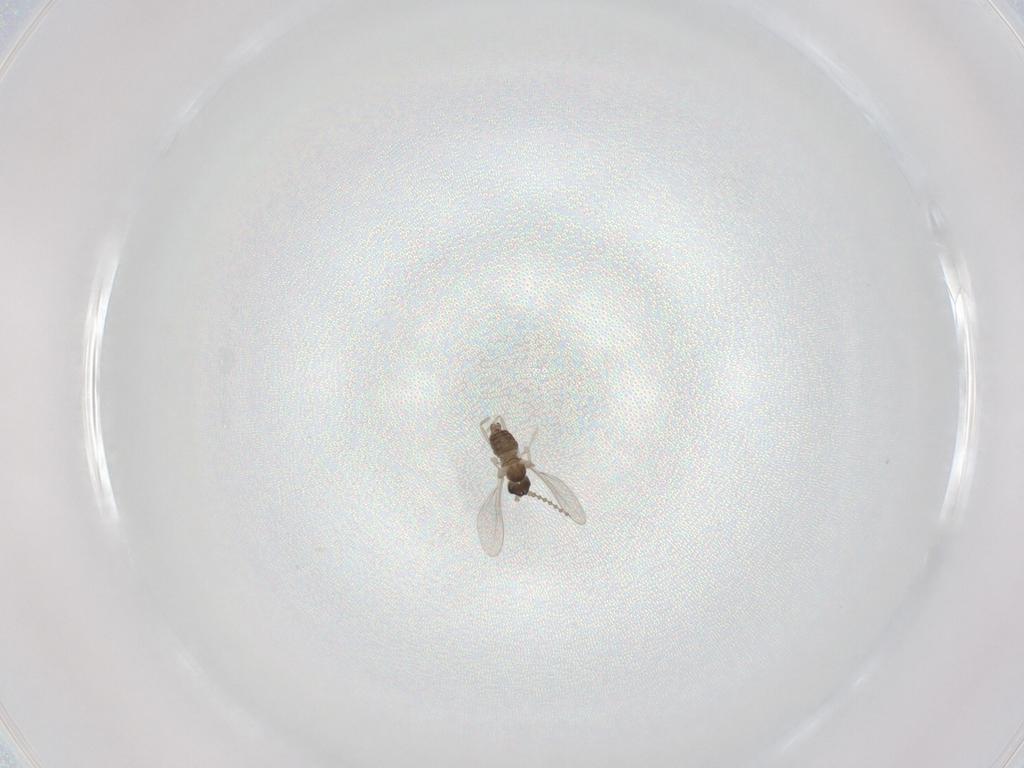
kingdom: Animalia
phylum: Arthropoda
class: Insecta
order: Diptera
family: Cecidomyiidae
